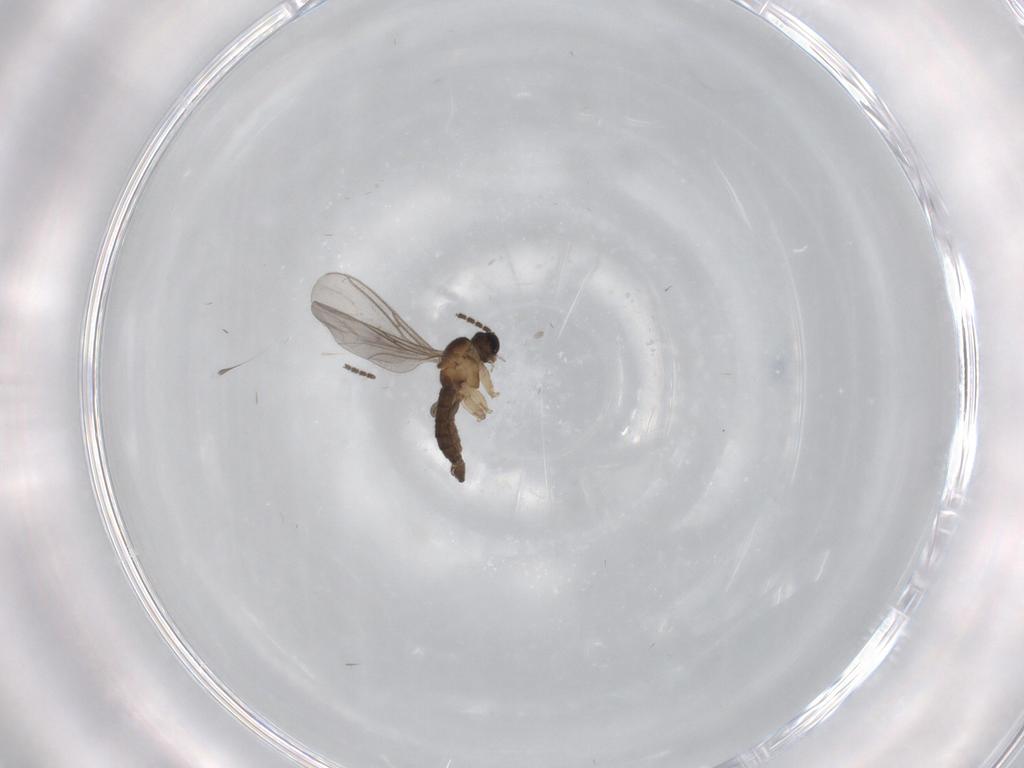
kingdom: Animalia
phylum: Arthropoda
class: Insecta
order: Diptera
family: Sciaridae
